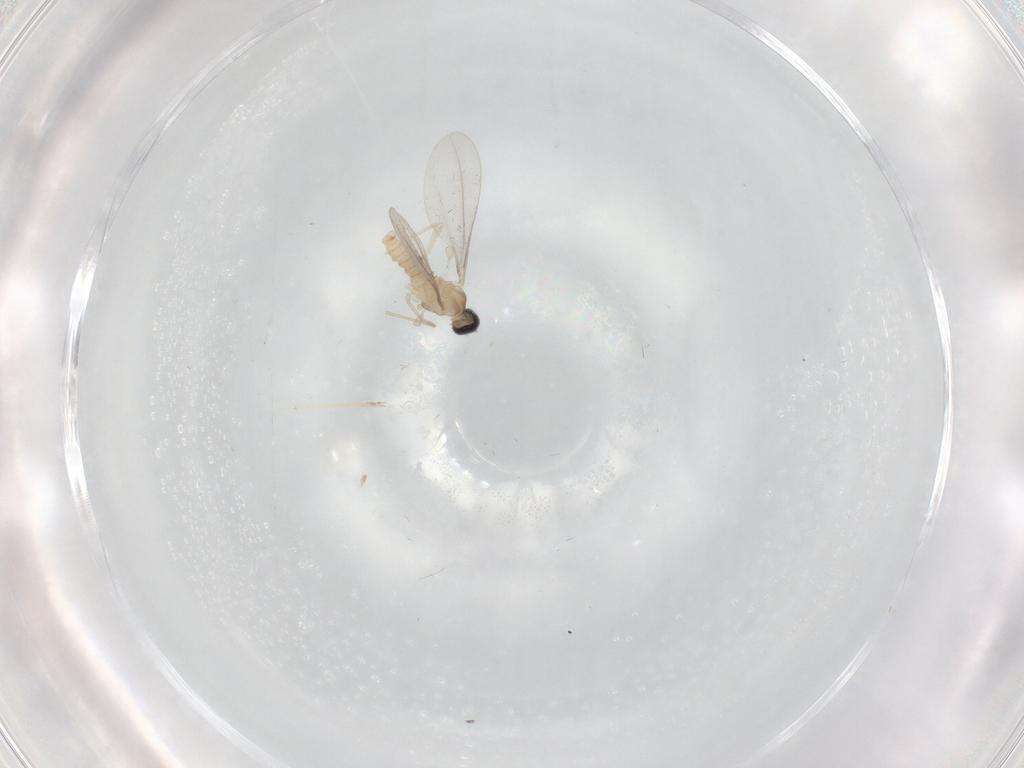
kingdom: Animalia
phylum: Arthropoda
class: Insecta
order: Diptera
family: Cecidomyiidae
